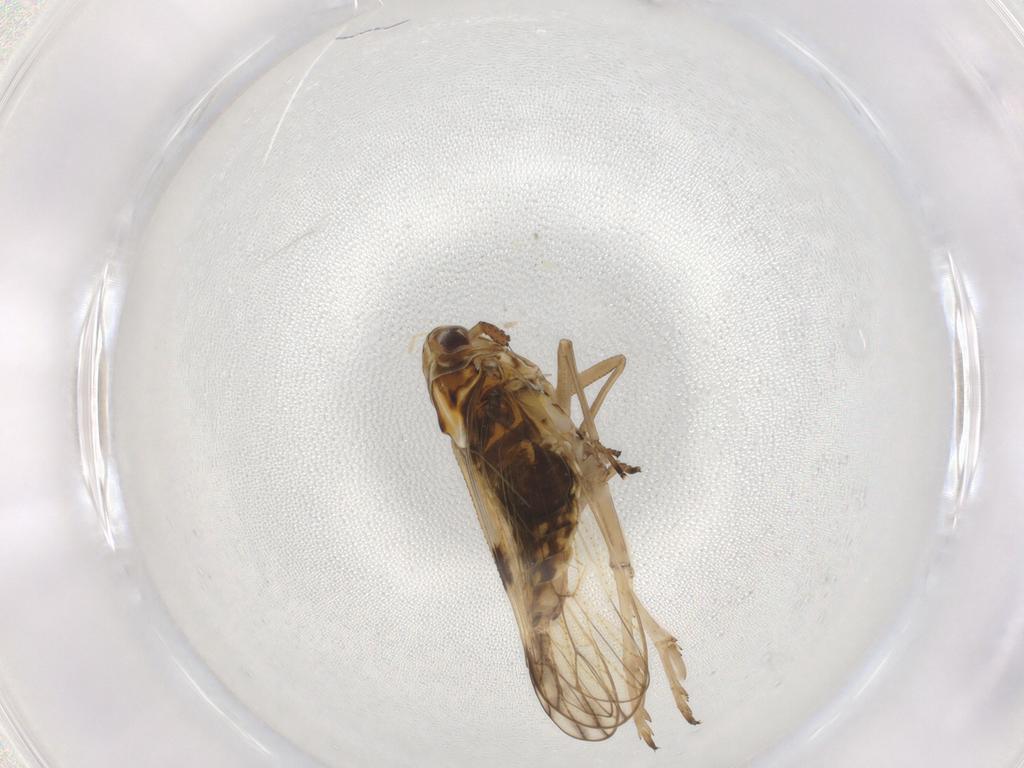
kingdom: Animalia
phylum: Arthropoda
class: Insecta
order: Hemiptera
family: Delphacidae
